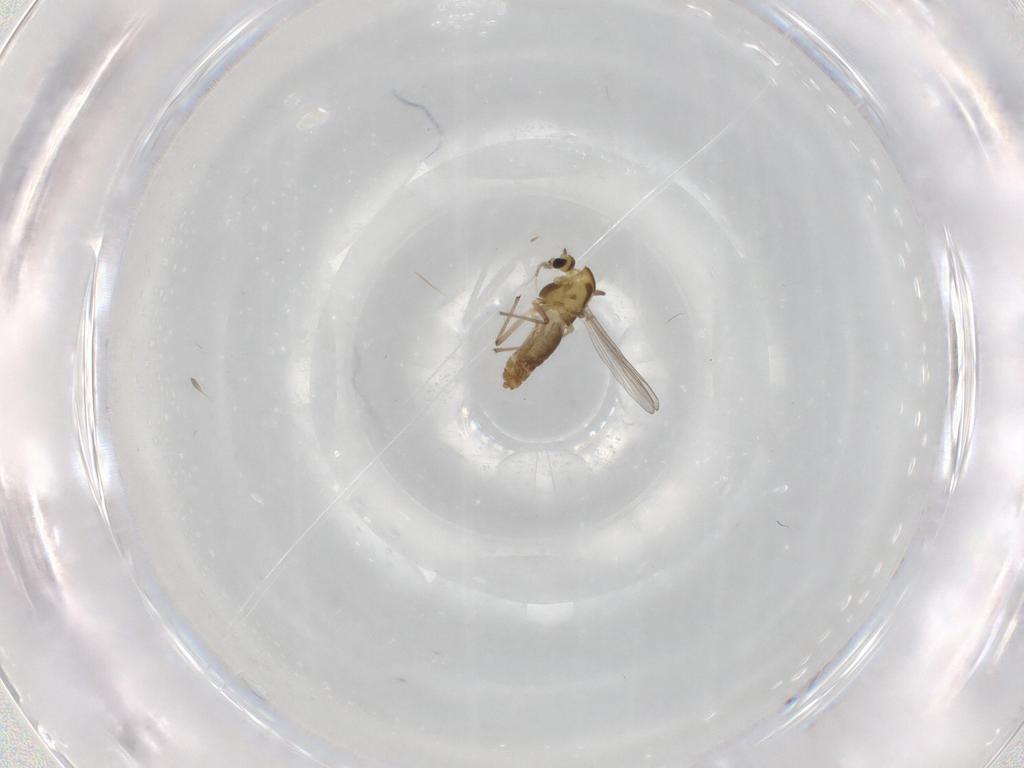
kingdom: Animalia
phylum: Arthropoda
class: Insecta
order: Diptera
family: Chironomidae
